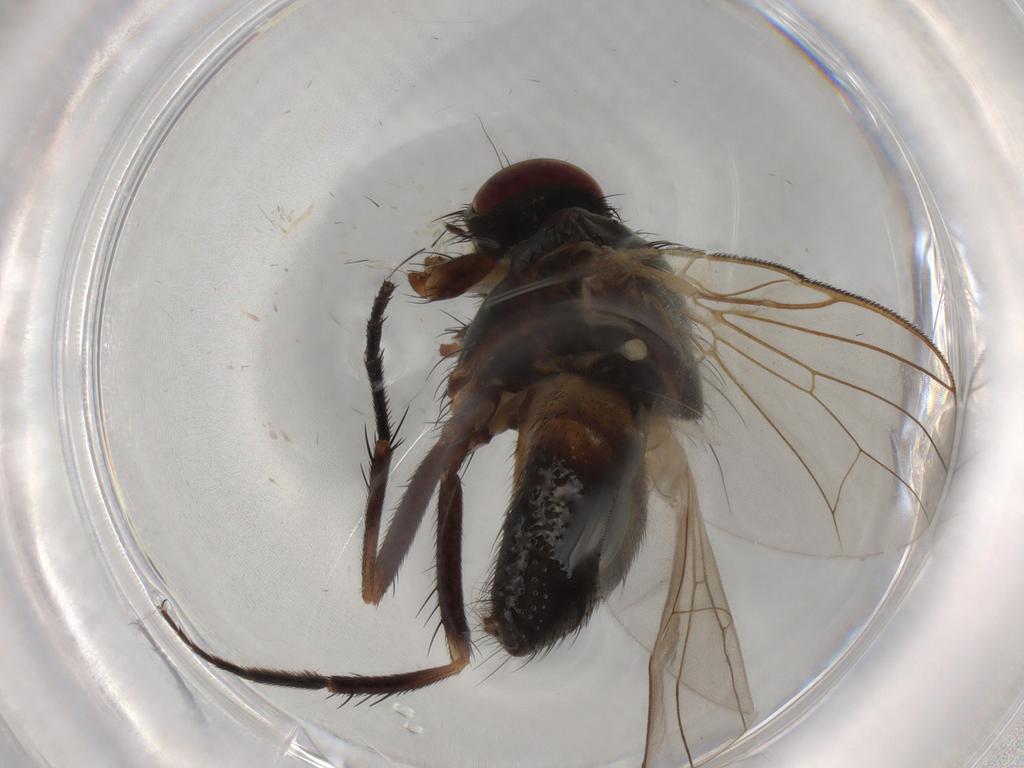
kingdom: Animalia
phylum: Arthropoda
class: Insecta
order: Diptera
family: Fannia
